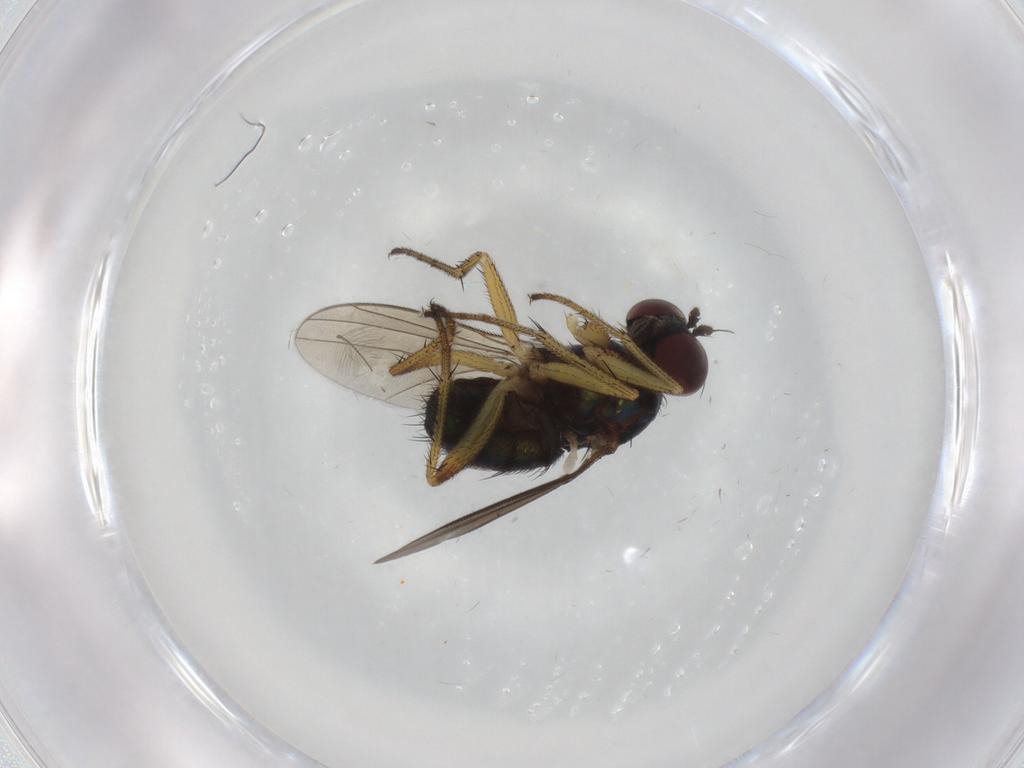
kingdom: Animalia
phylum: Arthropoda
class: Insecta
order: Diptera
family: Dolichopodidae
